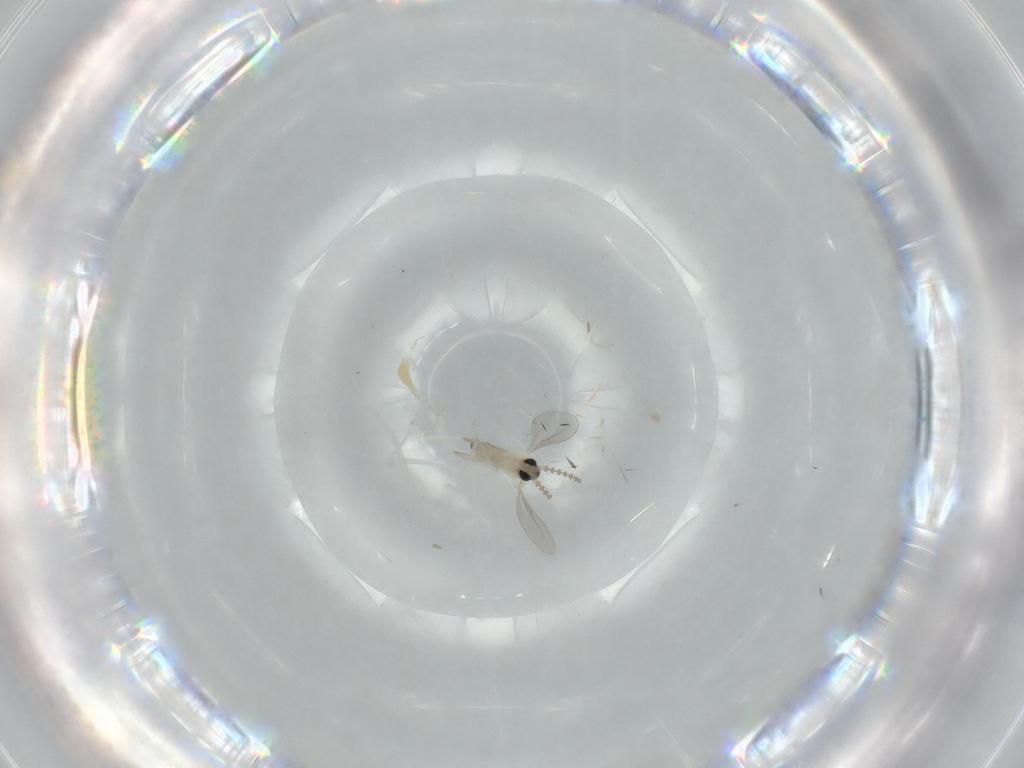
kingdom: Animalia
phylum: Arthropoda
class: Insecta
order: Diptera
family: Cecidomyiidae
